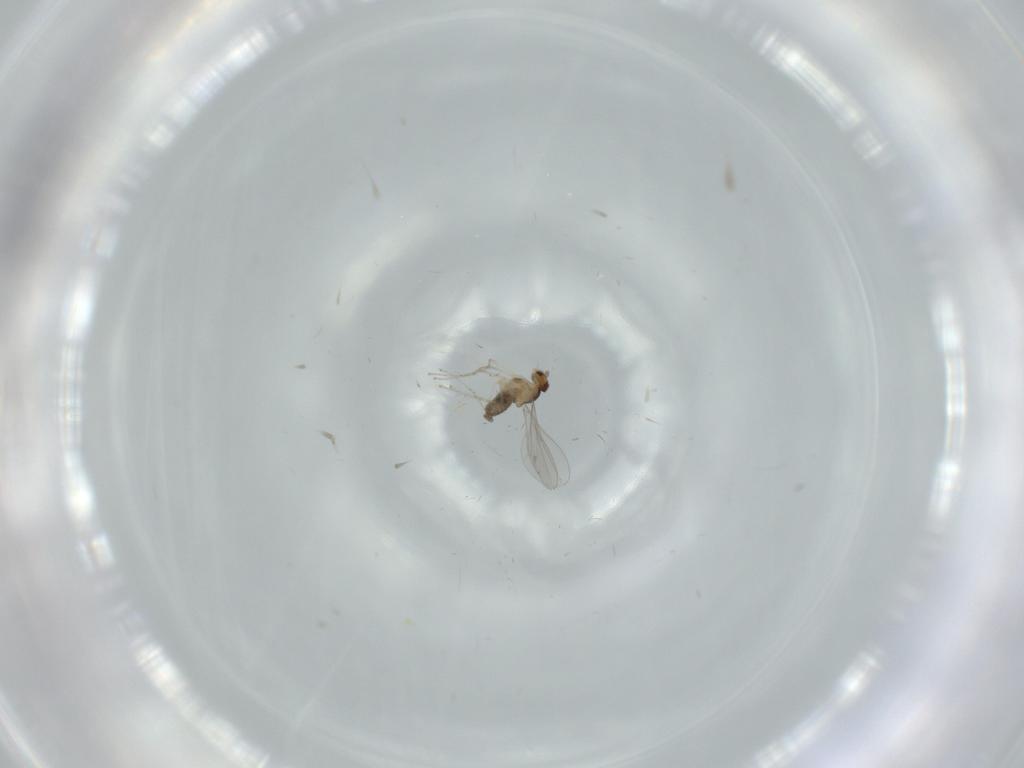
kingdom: Animalia
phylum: Arthropoda
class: Insecta
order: Diptera
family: Cecidomyiidae
